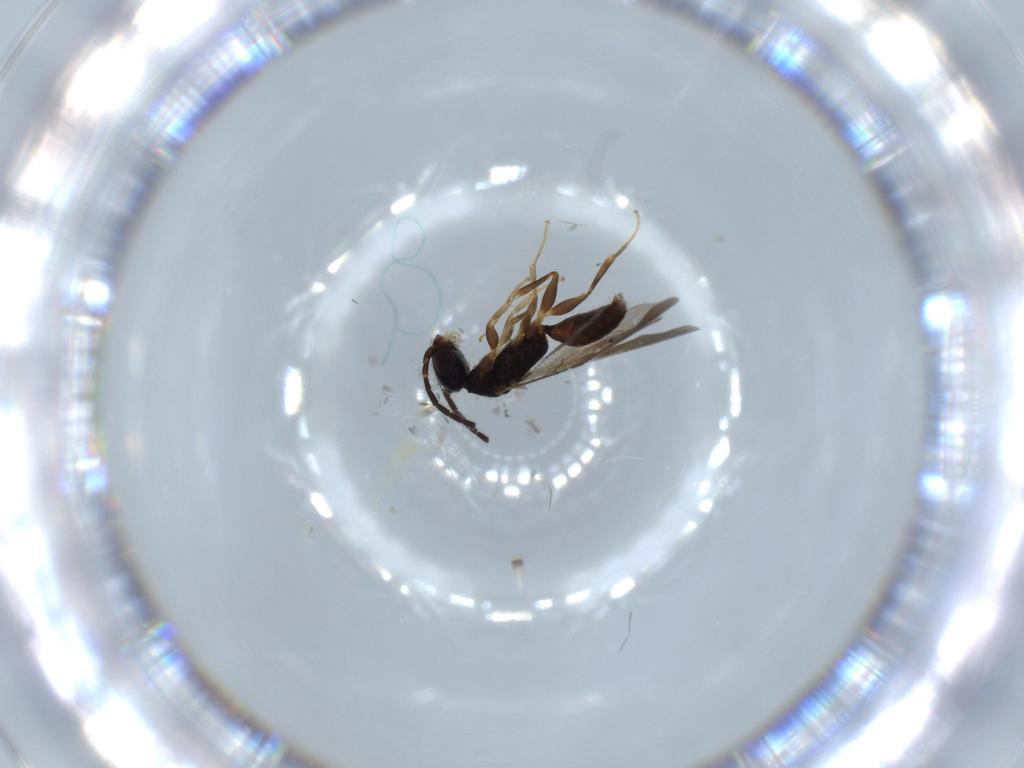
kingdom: Animalia
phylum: Arthropoda
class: Insecta
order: Hymenoptera
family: Bethylidae
